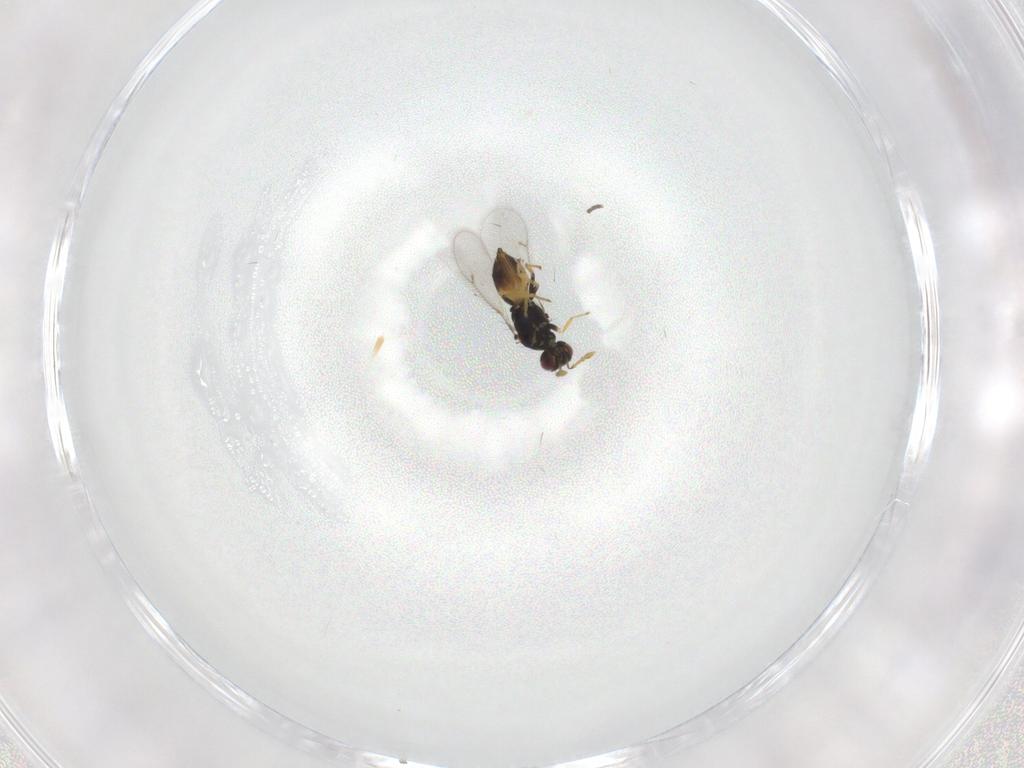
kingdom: Animalia
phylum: Arthropoda
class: Insecta
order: Hymenoptera
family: Eulophidae
